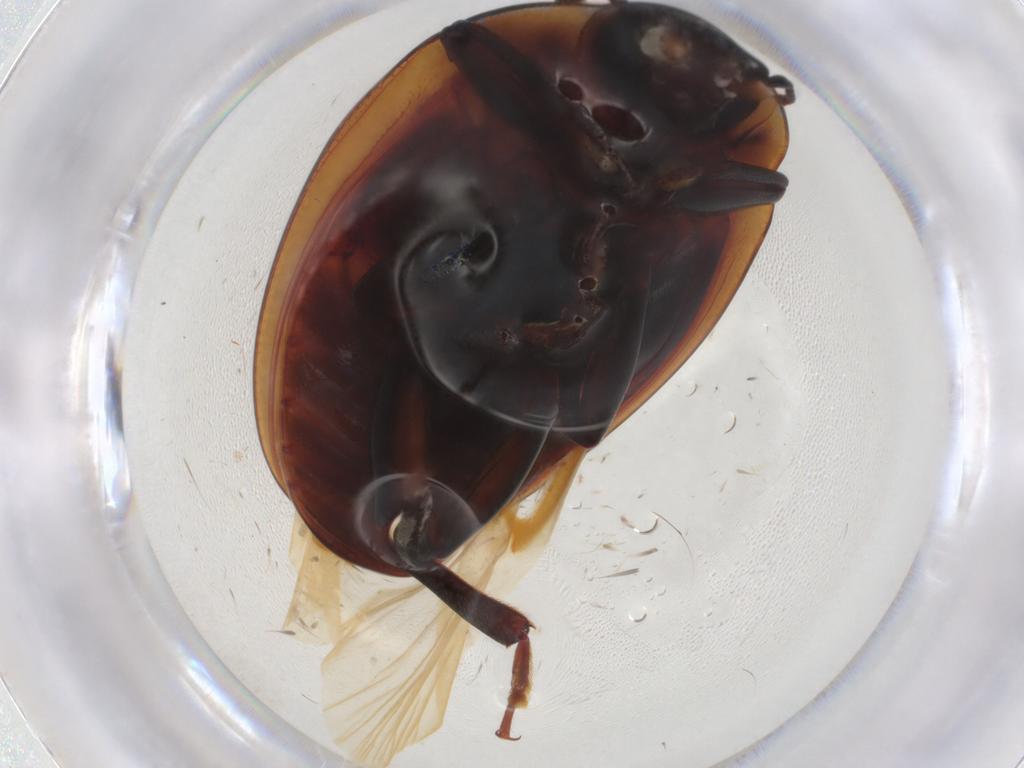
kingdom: Animalia
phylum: Arthropoda
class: Insecta
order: Coleoptera
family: Zopheridae
